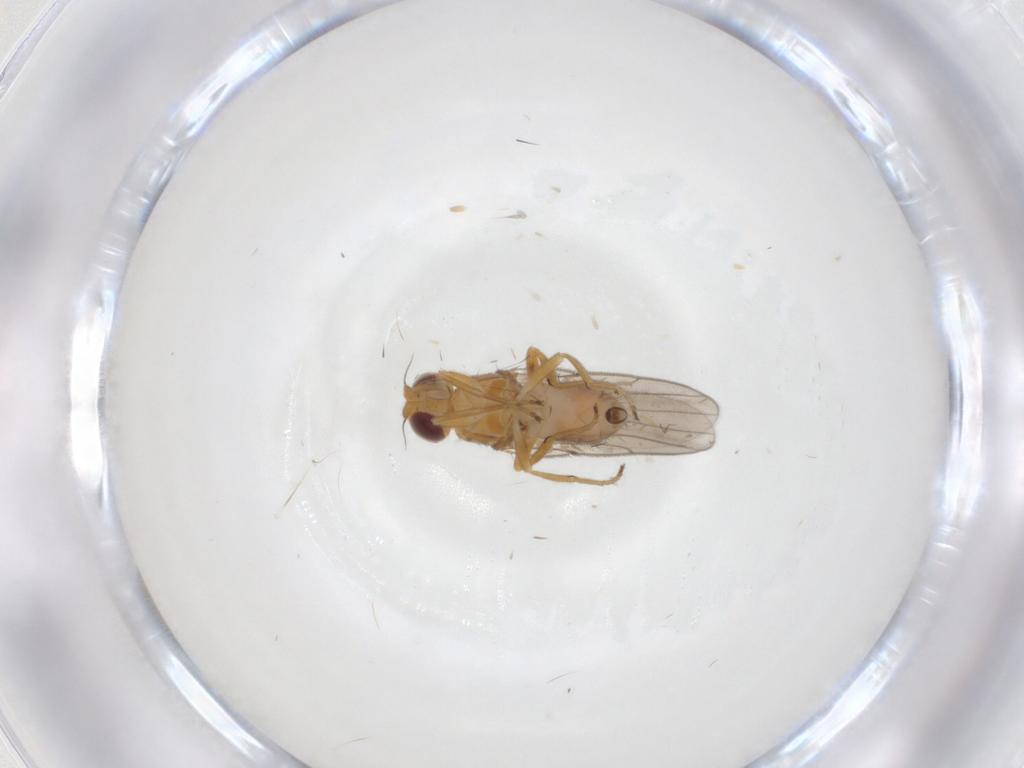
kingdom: Animalia
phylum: Arthropoda
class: Insecta
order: Diptera
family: Chloropidae
